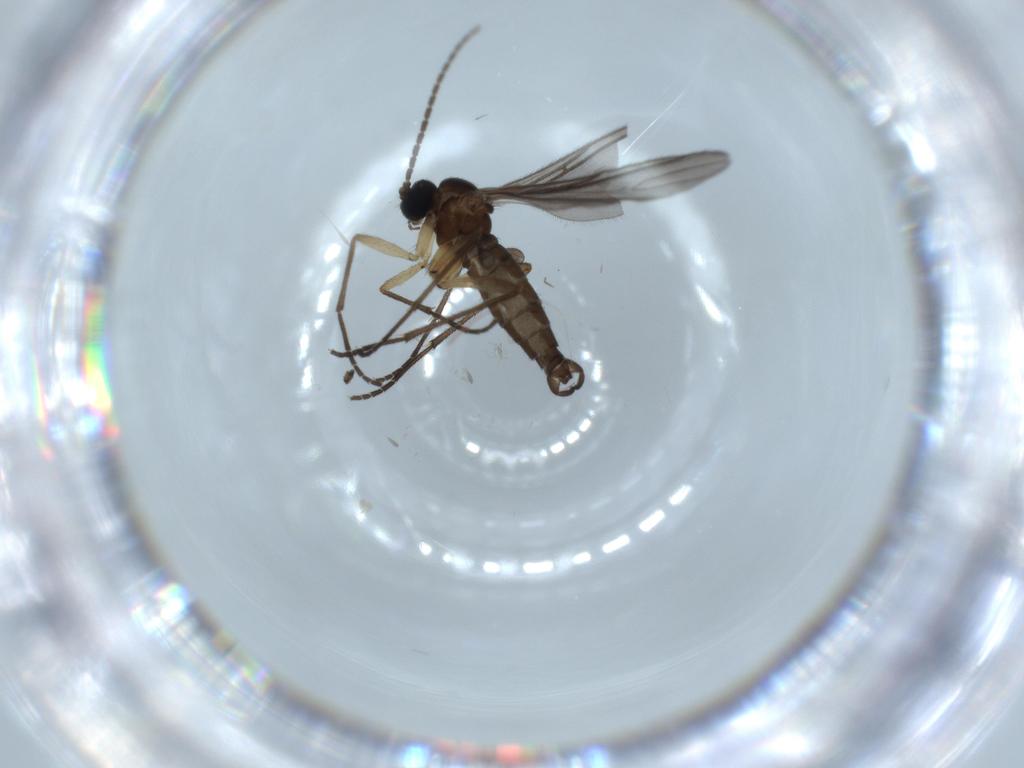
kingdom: Animalia
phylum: Arthropoda
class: Insecta
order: Diptera
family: Sciaridae
